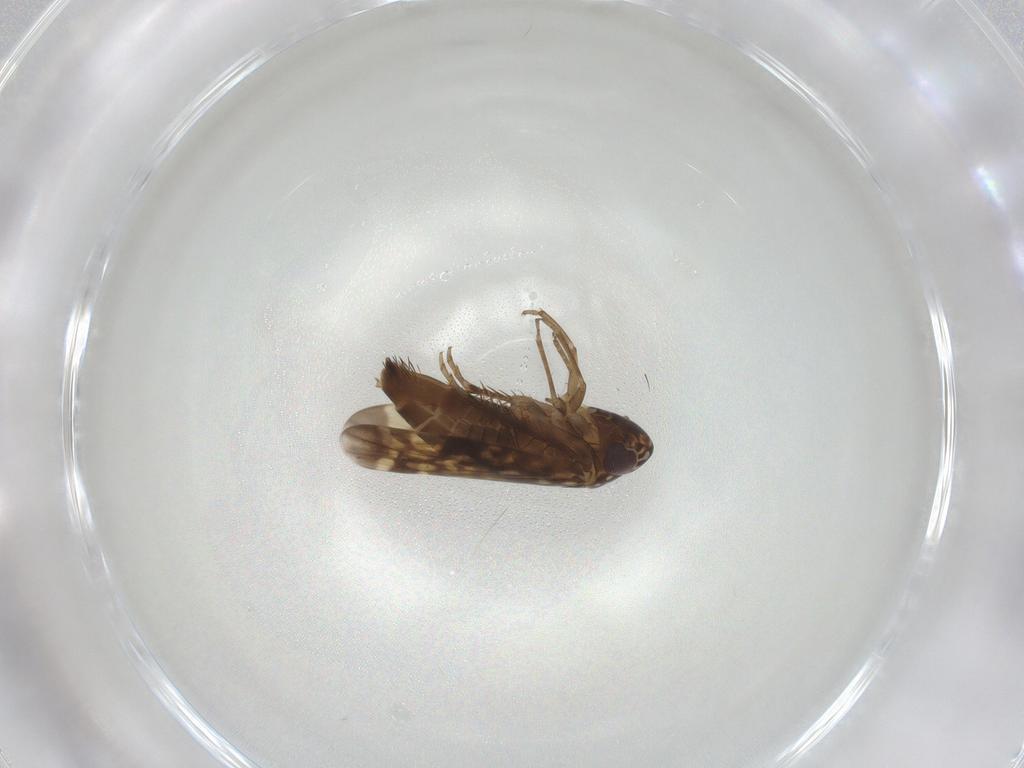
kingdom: Animalia
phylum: Arthropoda
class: Insecta
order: Hemiptera
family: Cicadellidae
